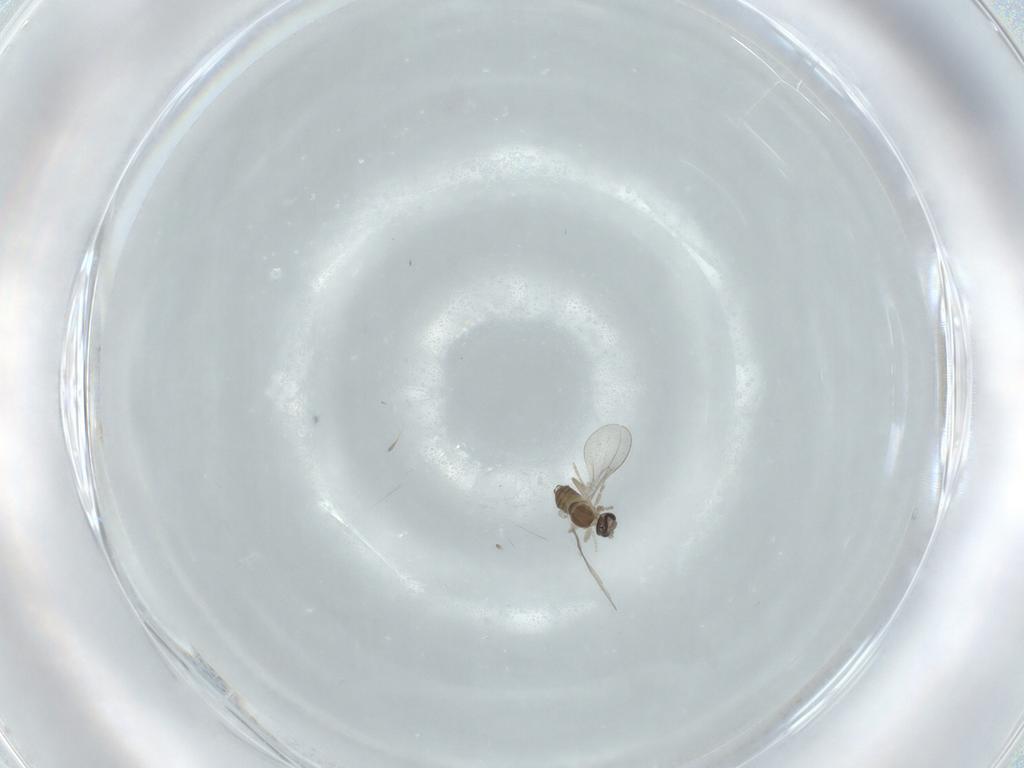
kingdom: Animalia
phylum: Arthropoda
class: Insecta
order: Diptera
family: Cecidomyiidae
